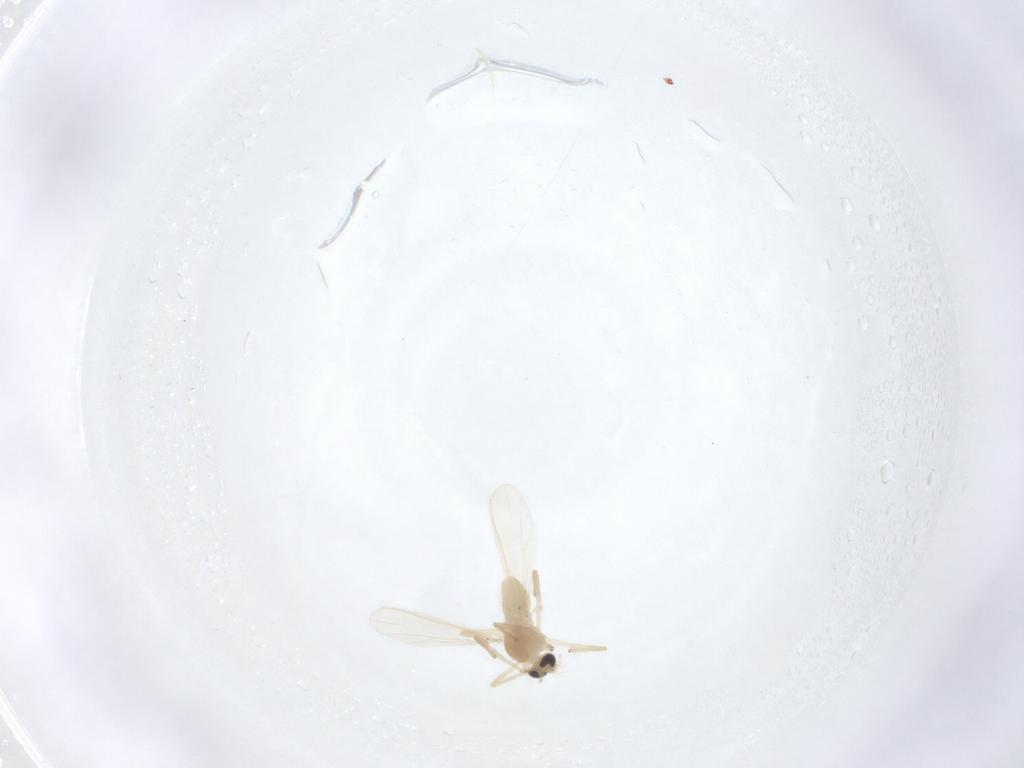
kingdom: Animalia
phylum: Arthropoda
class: Insecta
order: Diptera
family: Chironomidae
